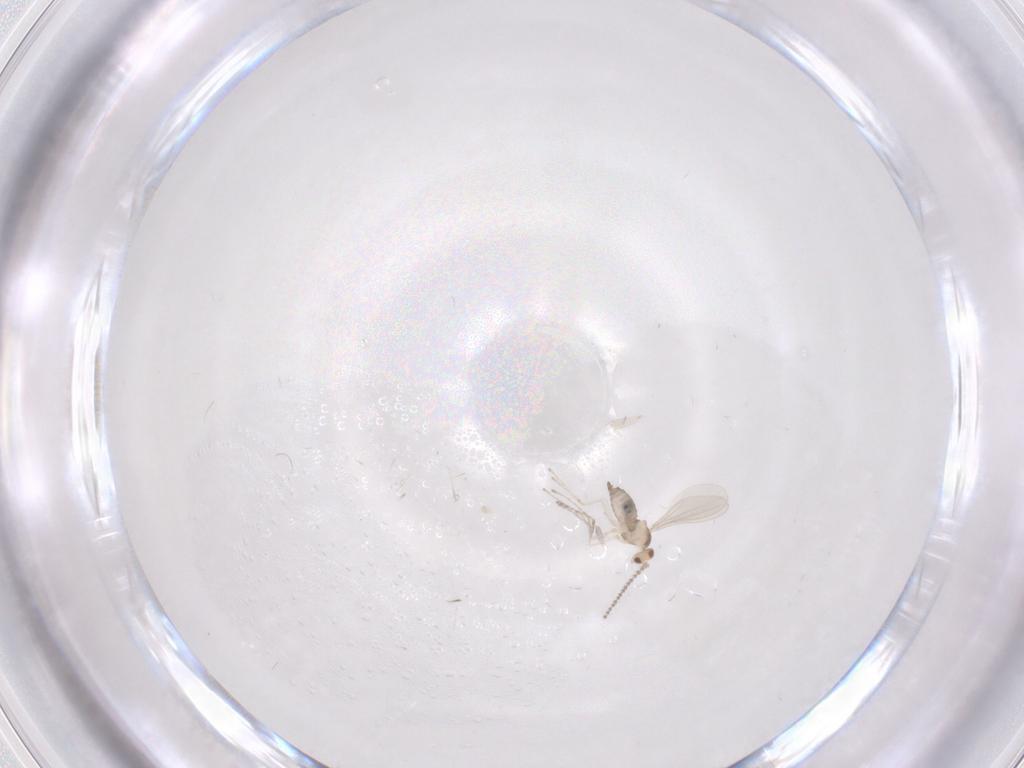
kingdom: Animalia
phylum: Arthropoda
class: Insecta
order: Diptera
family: Cecidomyiidae
